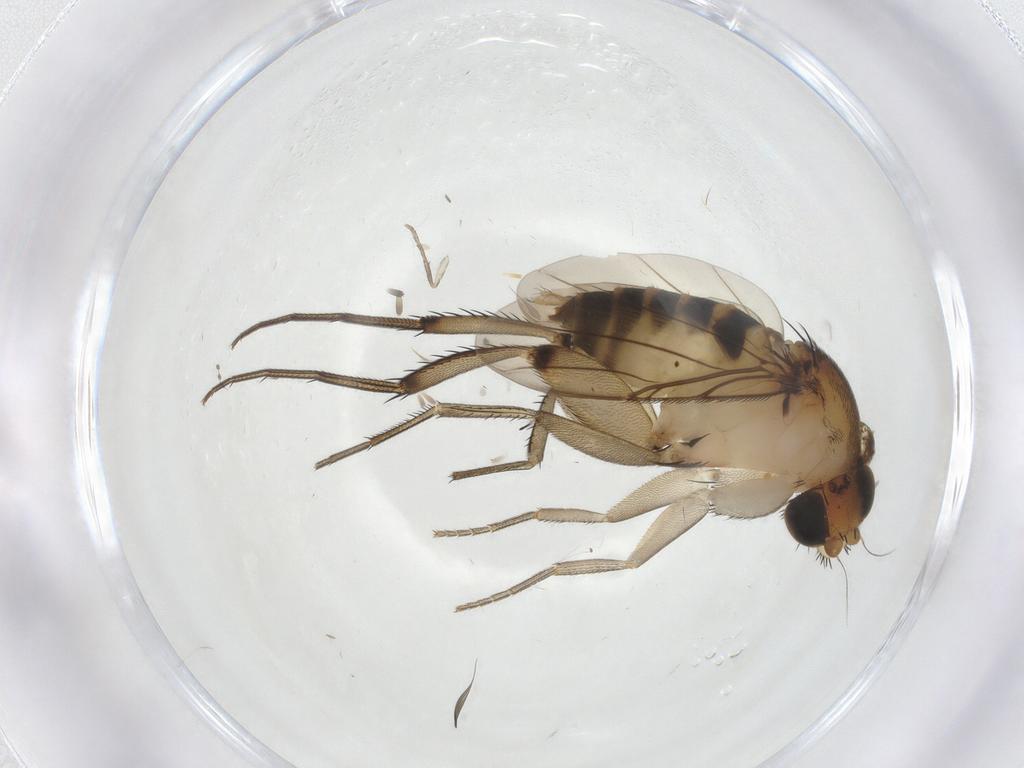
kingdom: Animalia
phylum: Arthropoda
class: Insecta
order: Diptera
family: Phoridae
